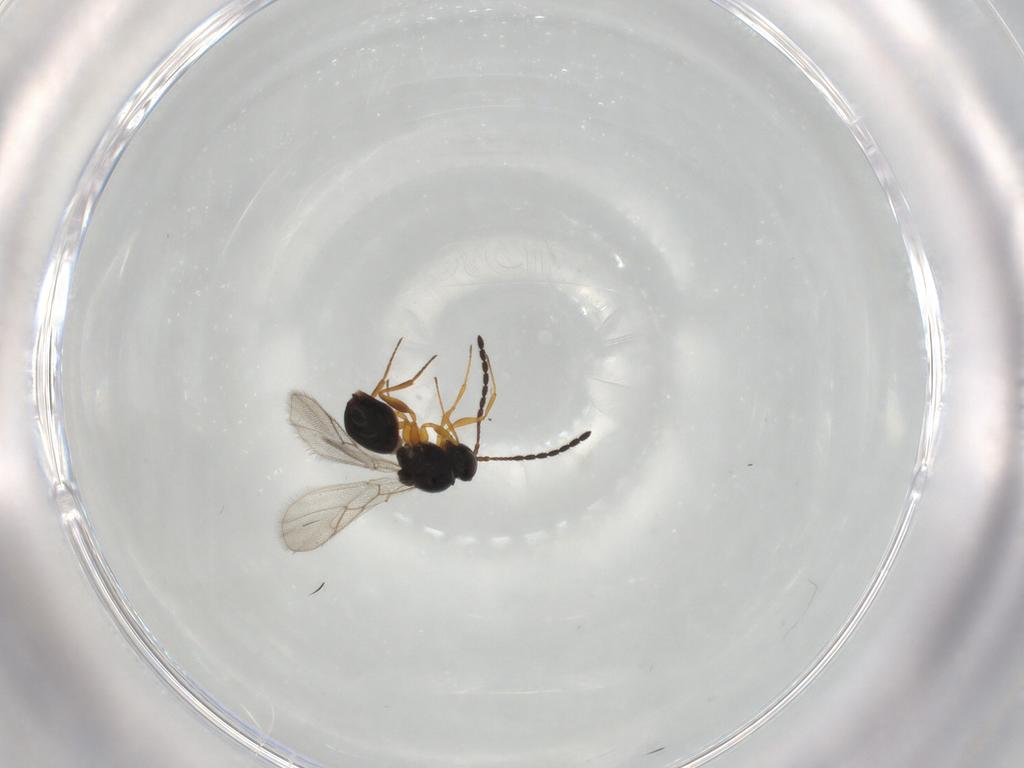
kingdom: Animalia
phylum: Arthropoda
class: Insecta
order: Hymenoptera
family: Figitidae
